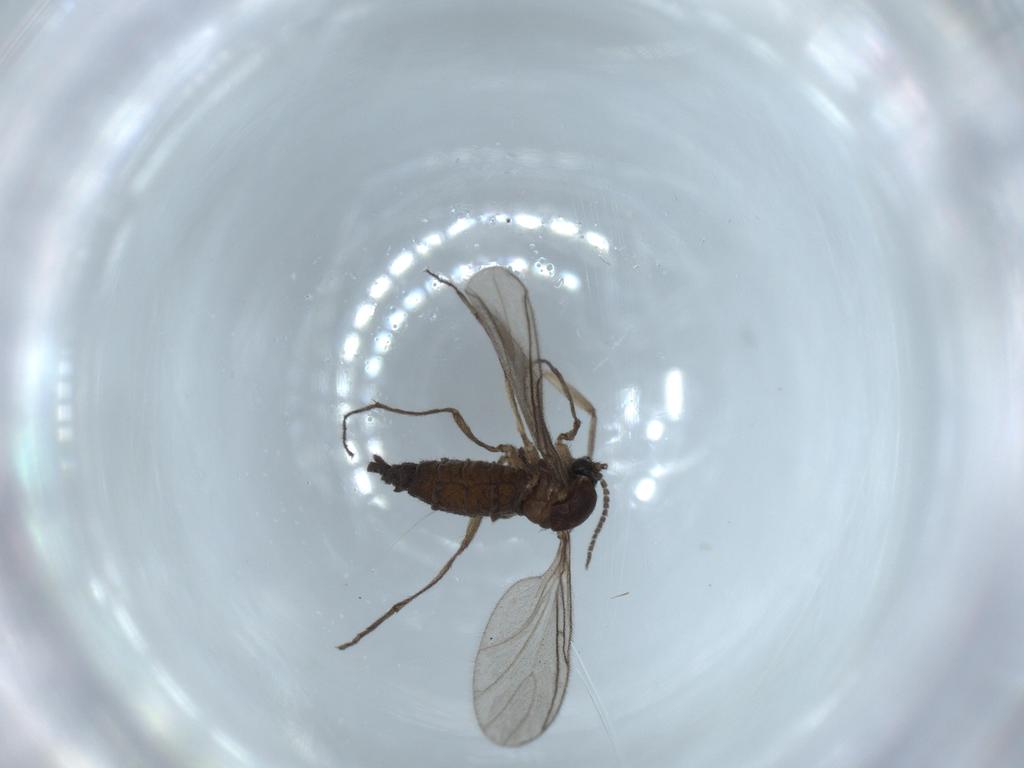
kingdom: Animalia
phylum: Arthropoda
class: Insecta
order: Diptera
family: Sciaridae
